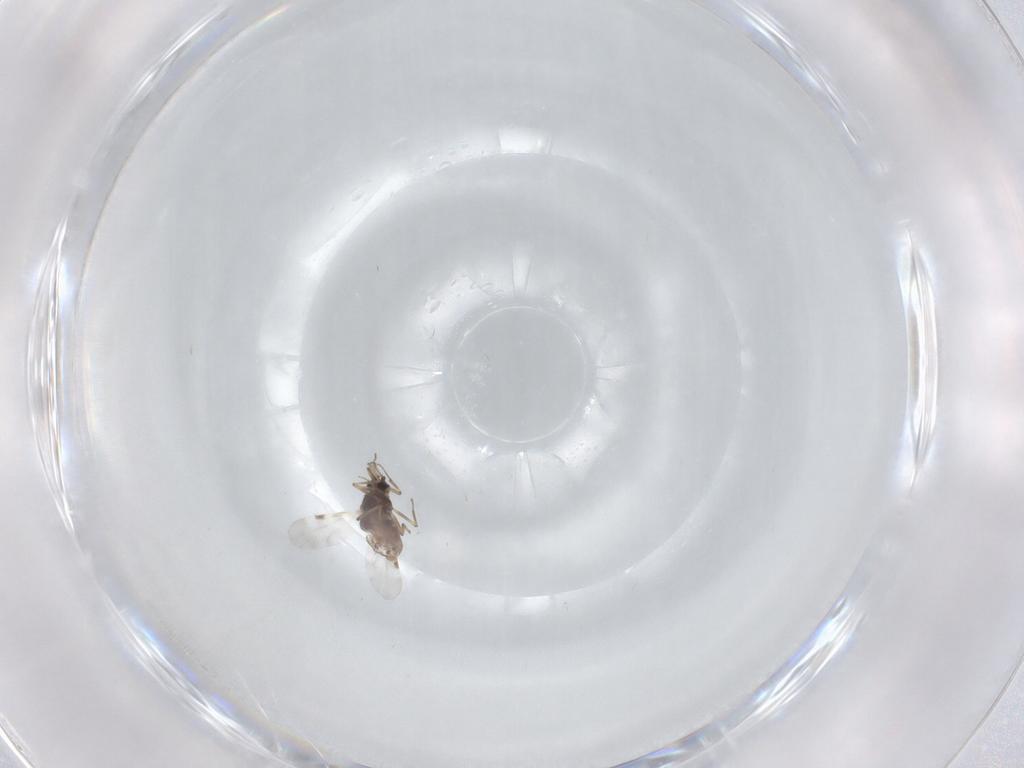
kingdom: Animalia
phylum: Arthropoda
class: Insecta
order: Diptera
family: Chironomidae
